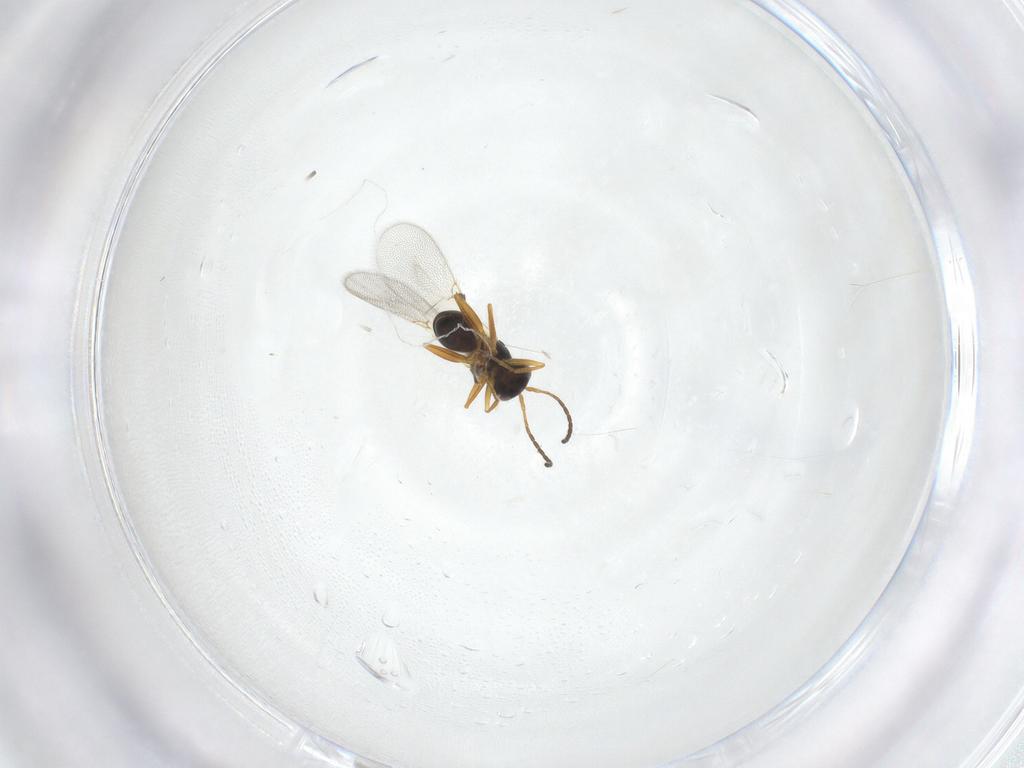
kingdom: Animalia
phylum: Arthropoda
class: Insecta
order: Hymenoptera
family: Figitidae
